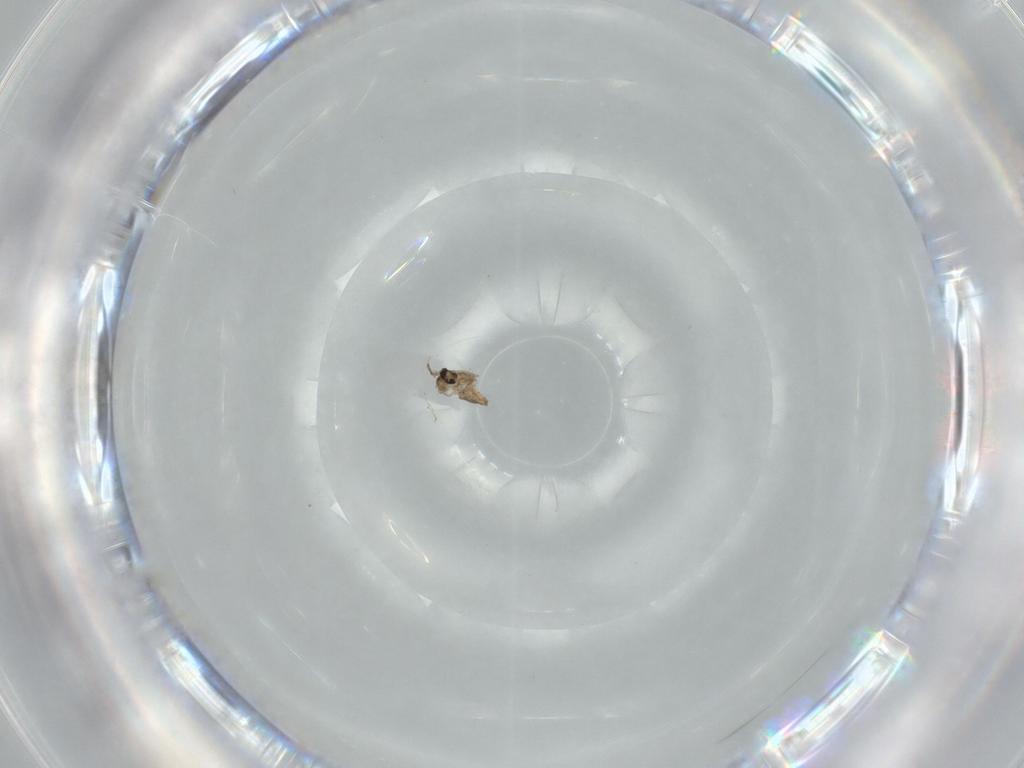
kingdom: Animalia
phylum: Arthropoda
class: Insecta
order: Diptera
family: Cecidomyiidae
